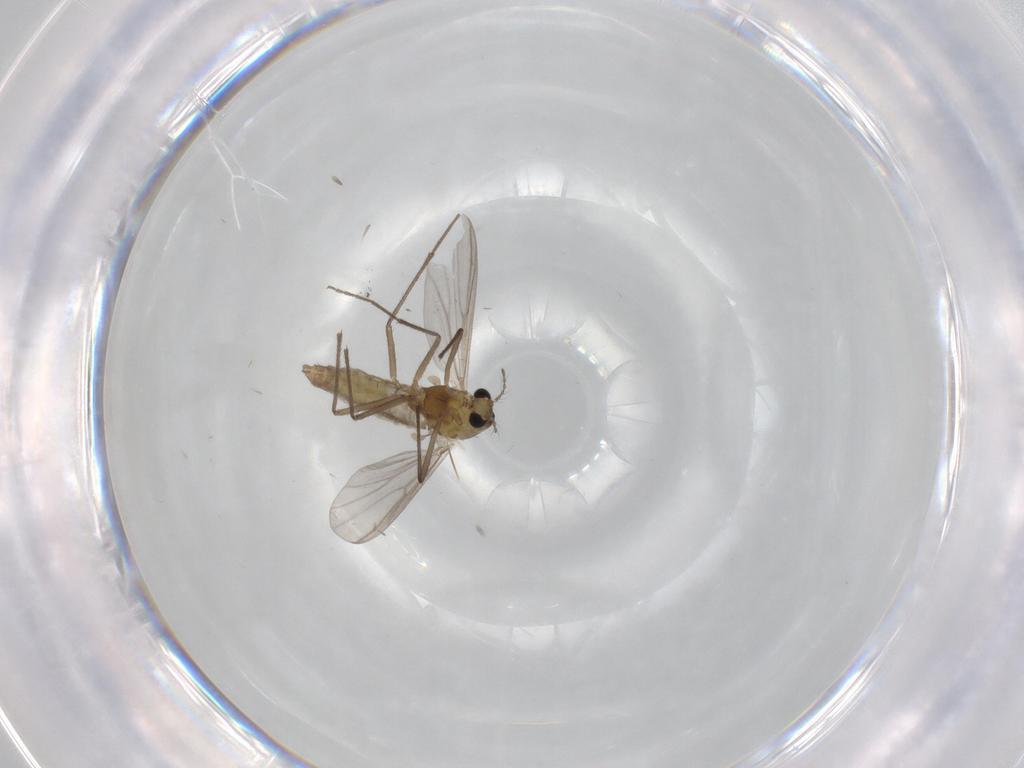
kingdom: Animalia
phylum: Arthropoda
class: Insecta
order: Diptera
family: Chironomidae
